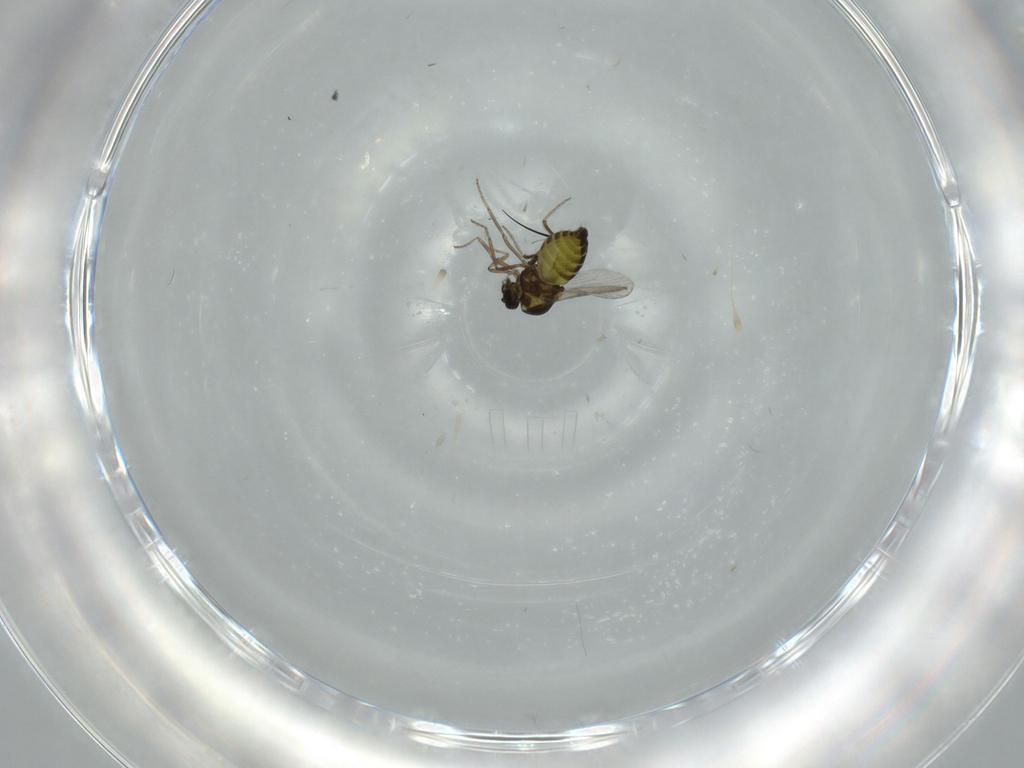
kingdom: Animalia
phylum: Arthropoda
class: Insecta
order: Diptera
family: Ceratopogonidae
